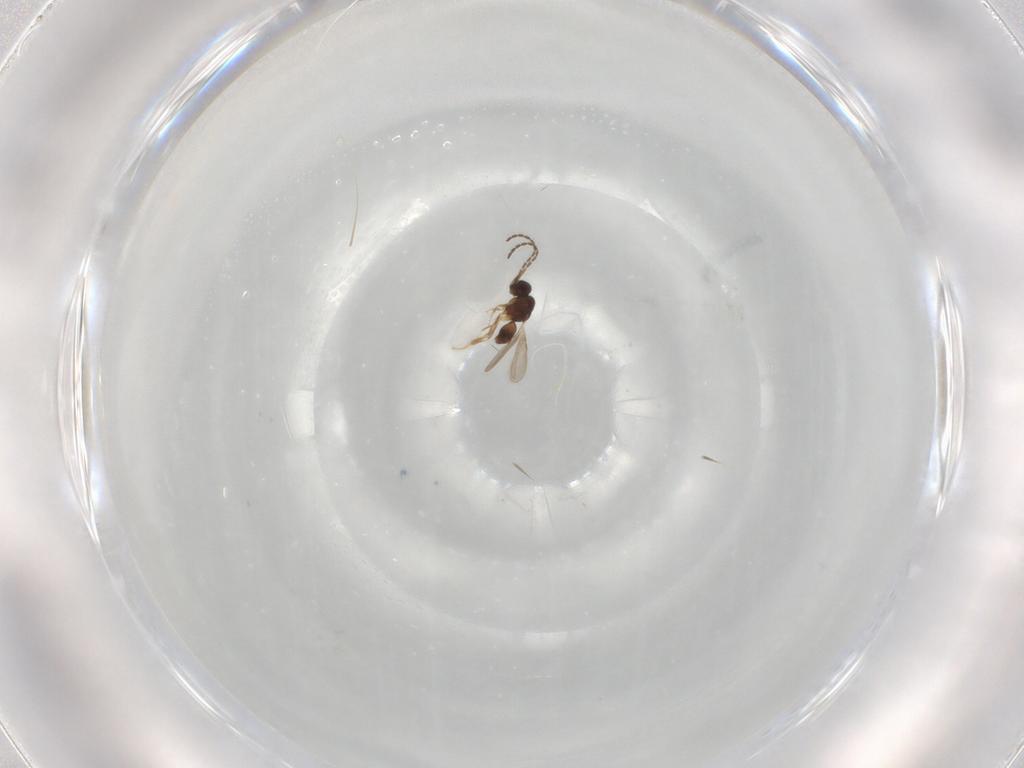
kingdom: Animalia
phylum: Arthropoda
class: Insecta
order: Hymenoptera
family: Diapriidae
